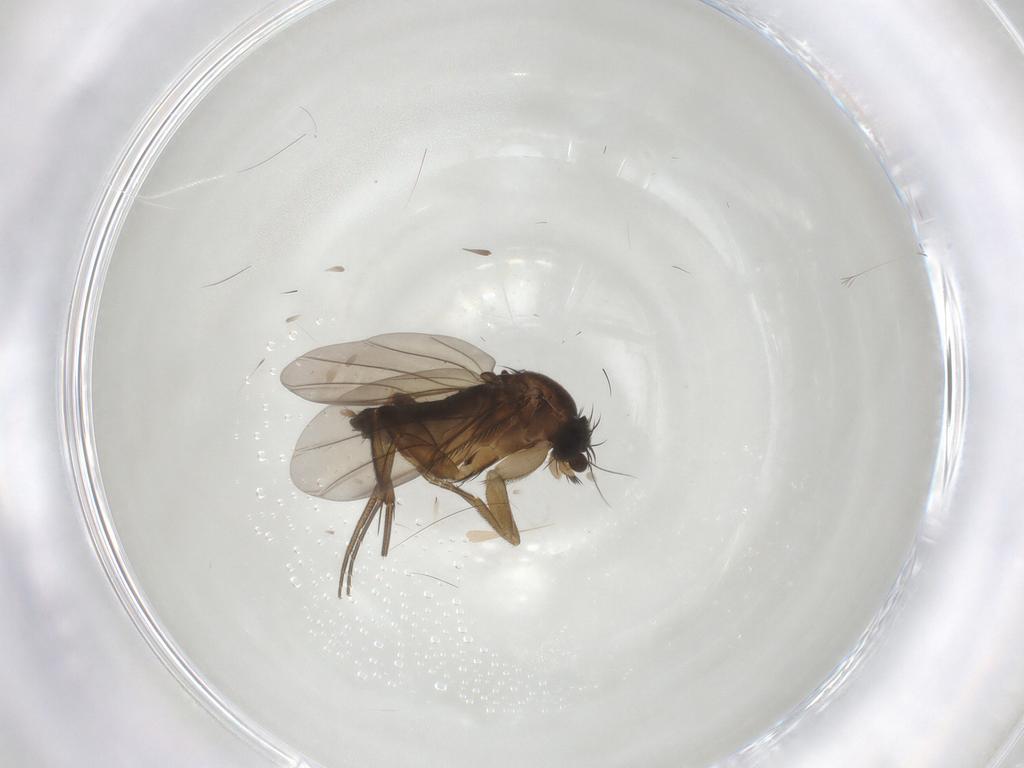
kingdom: Animalia
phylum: Arthropoda
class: Insecta
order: Diptera
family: Phoridae
